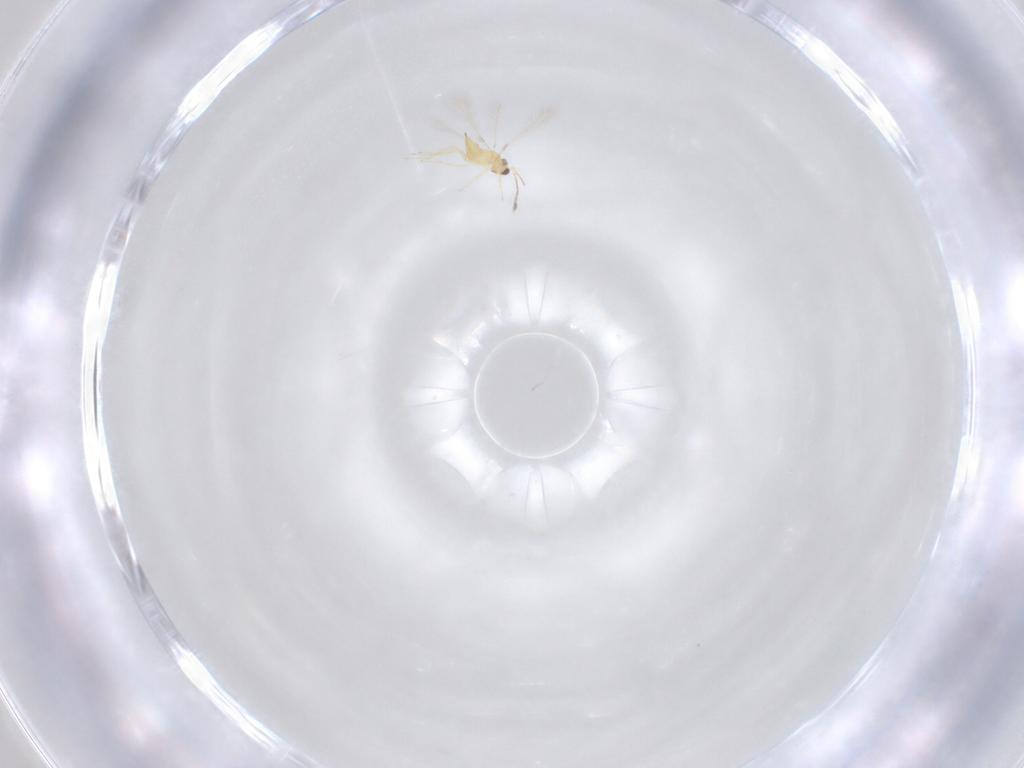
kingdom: Animalia
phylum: Arthropoda
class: Insecta
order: Hymenoptera
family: Mymaridae
